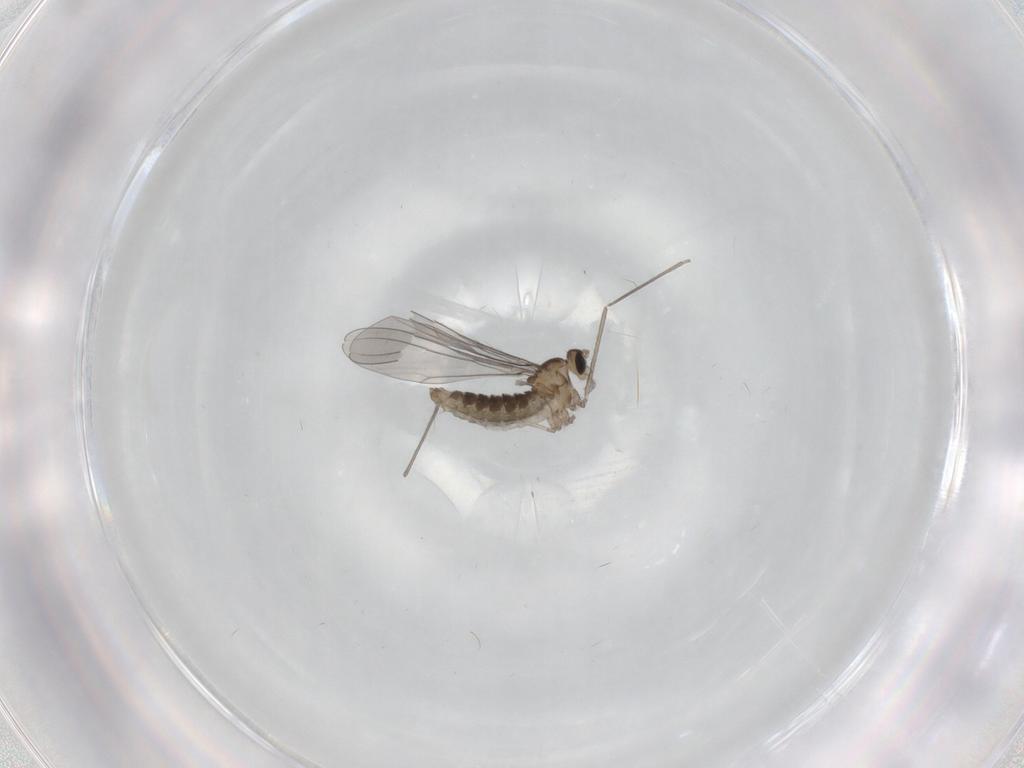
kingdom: Animalia
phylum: Arthropoda
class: Insecta
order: Diptera
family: Cecidomyiidae
